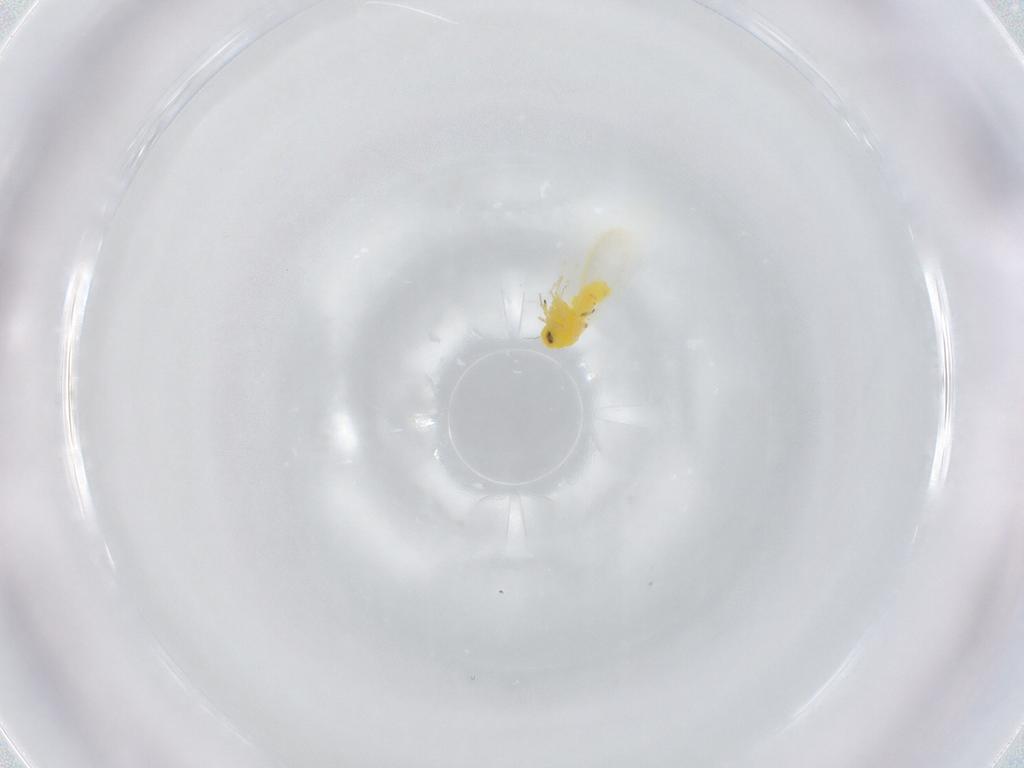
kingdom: Animalia
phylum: Arthropoda
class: Insecta
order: Hemiptera
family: Aleyrodidae
